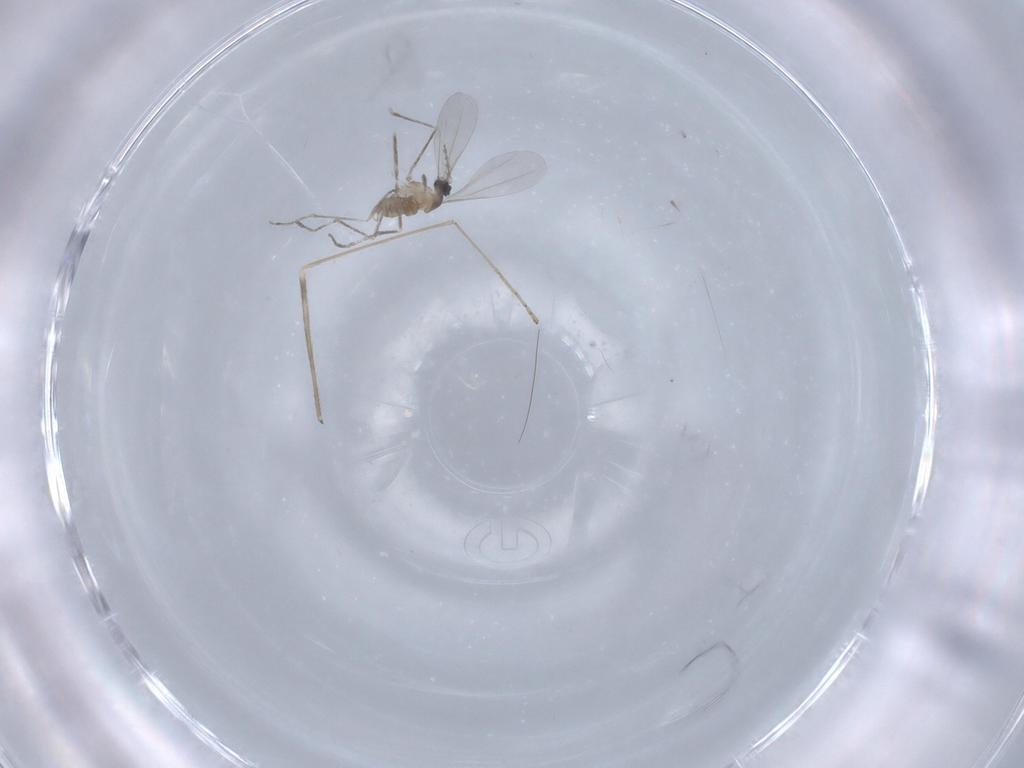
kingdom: Animalia
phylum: Arthropoda
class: Insecta
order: Diptera
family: Cecidomyiidae
